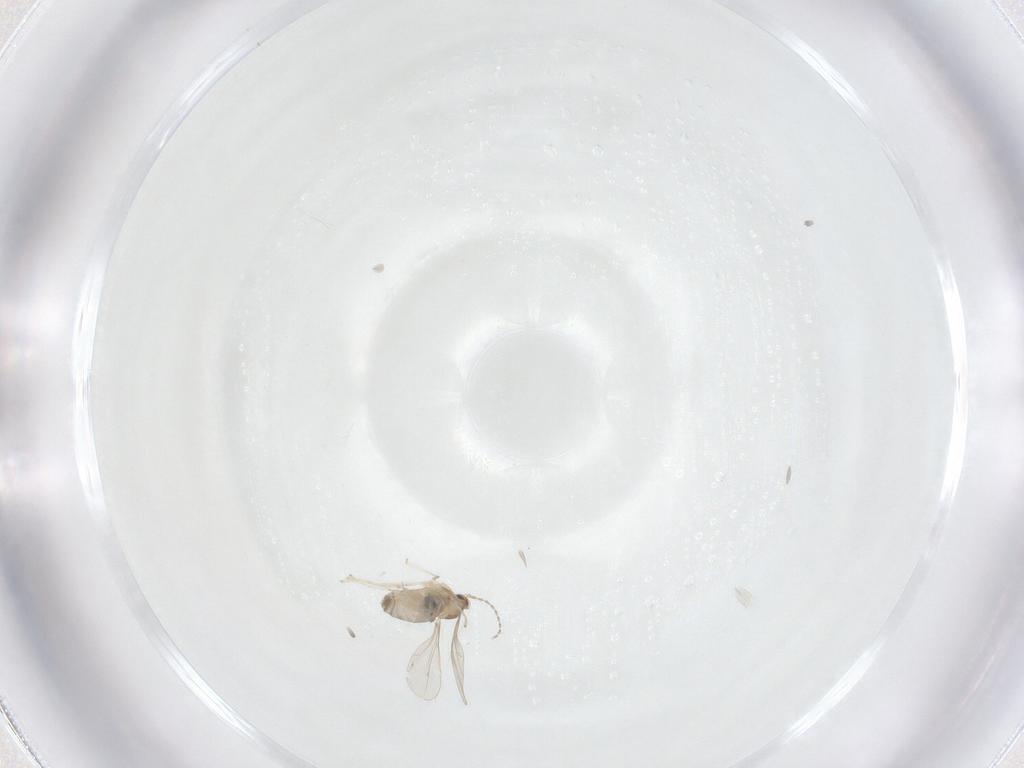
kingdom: Animalia
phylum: Arthropoda
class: Insecta
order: Diptera
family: Cecidomyiidae
